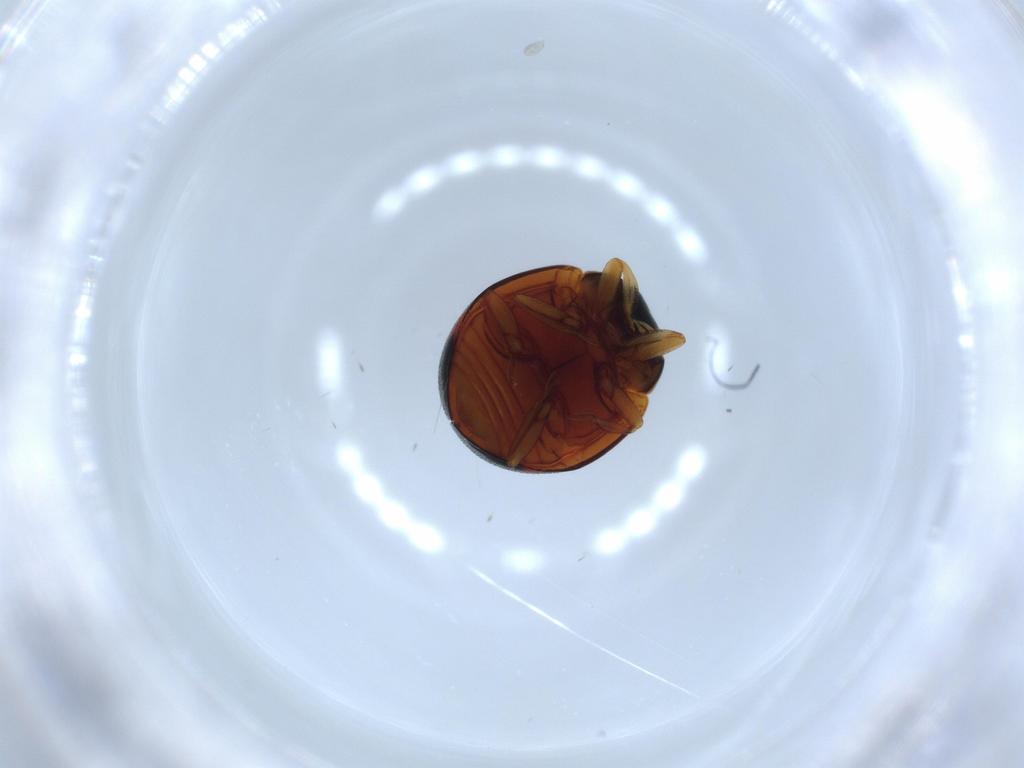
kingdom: Animalia
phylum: Arthropoda
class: Insecta
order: Coleoptera
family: Coccinellidae
